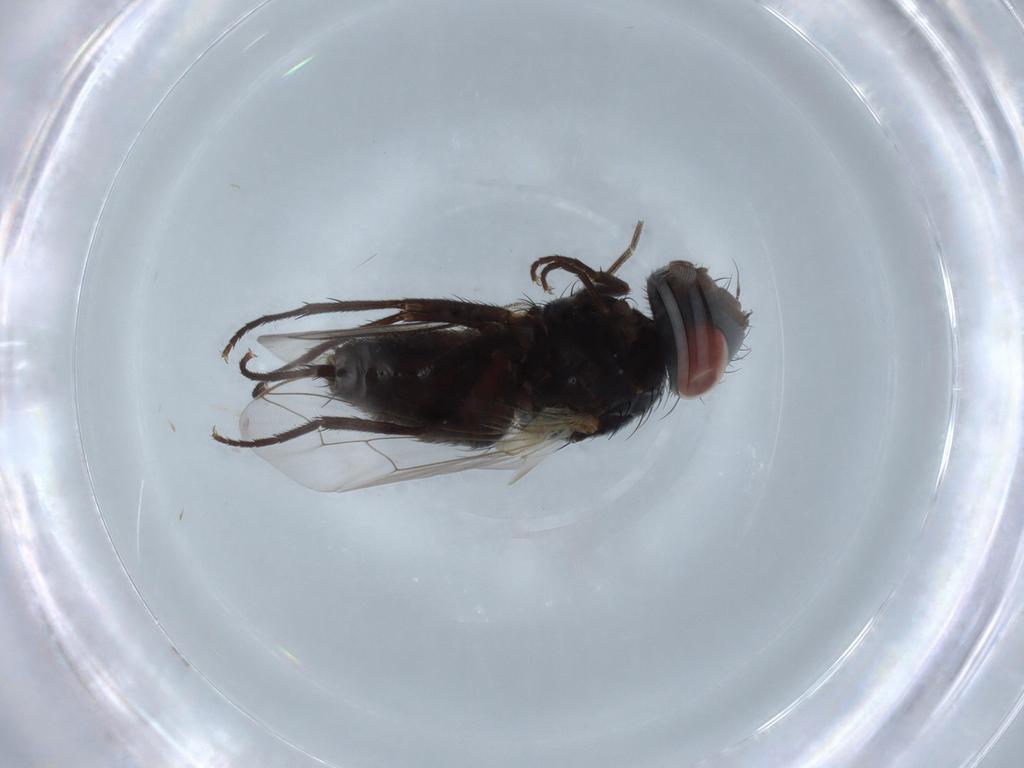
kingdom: Animalia
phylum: Arthropoda
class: Insecta
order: Diptera
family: Sarcophagidae
